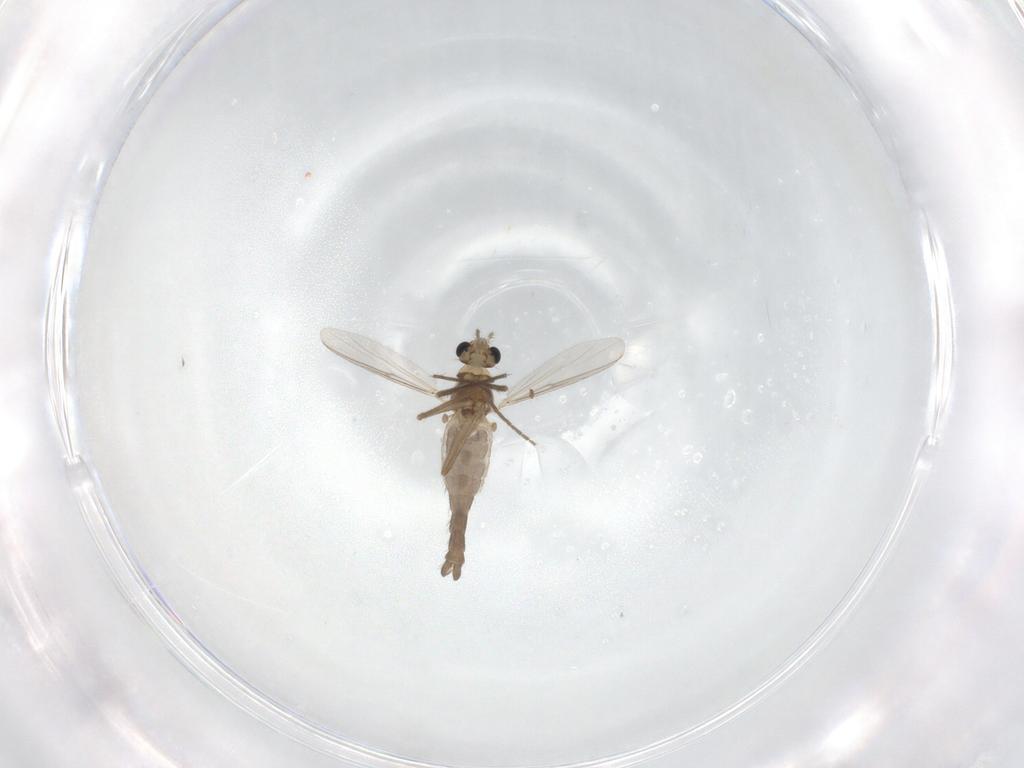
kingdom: Animalia
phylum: Arthropoda
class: Insecta
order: Diptera
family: Chironomidae
